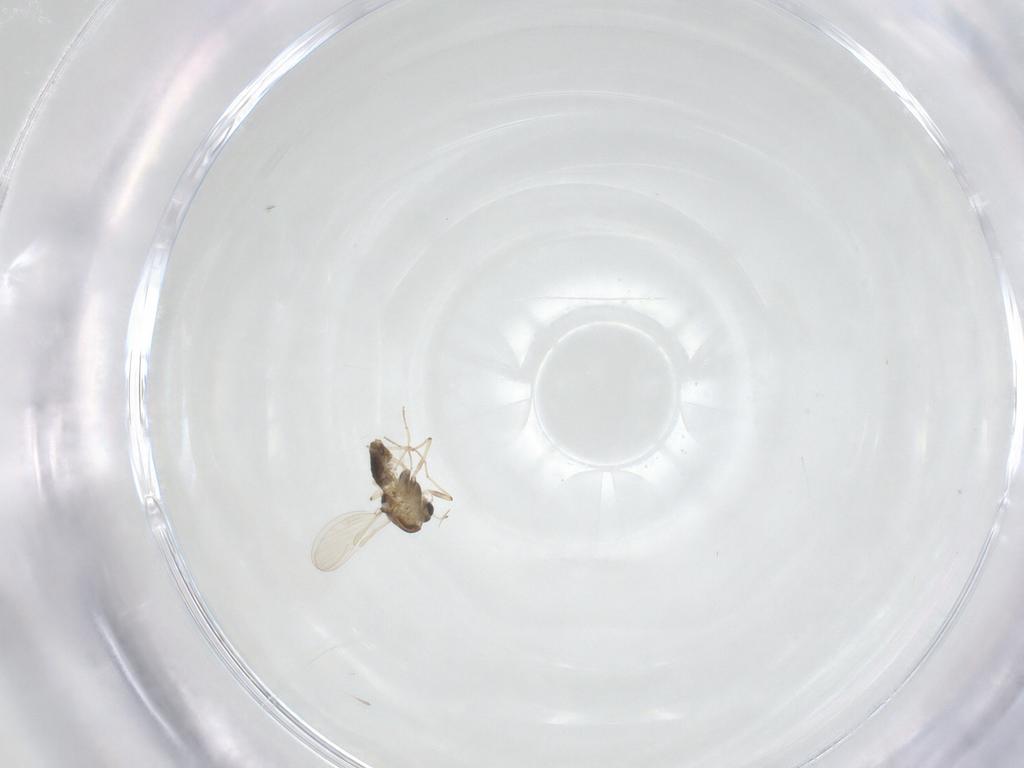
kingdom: Animalia
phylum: Arthropoda
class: Insecta
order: Diptera
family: Chironomidae
